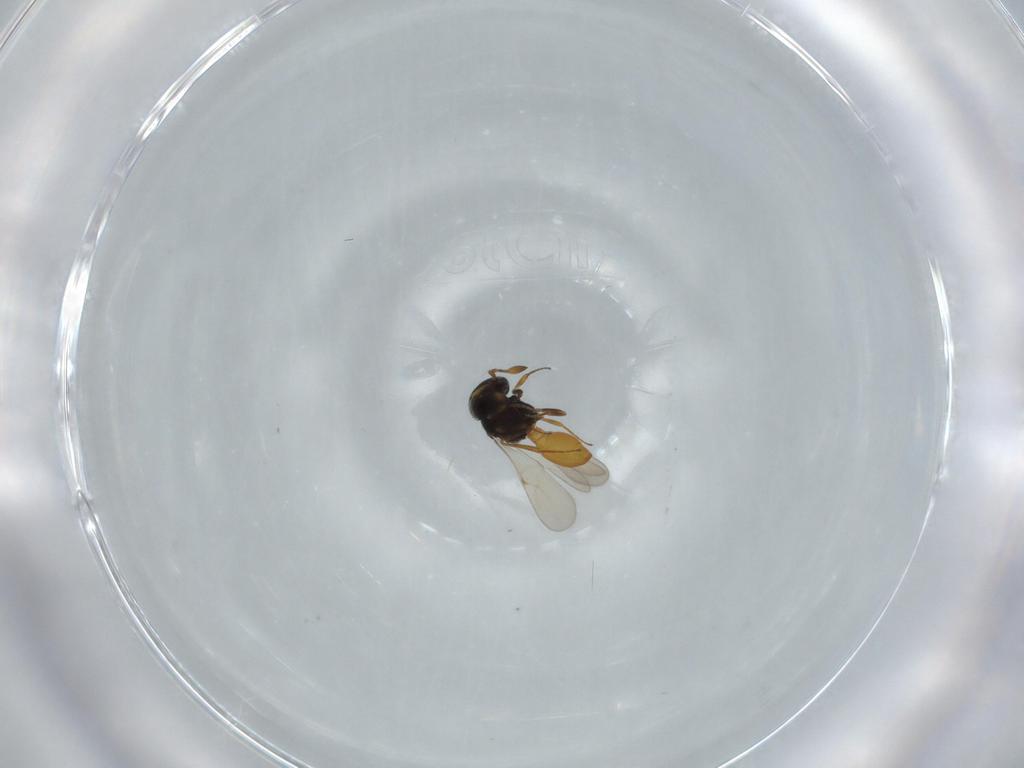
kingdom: Animalia
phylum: Arthropoda
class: Insecta
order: Hymenoptera
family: Scelionidae
